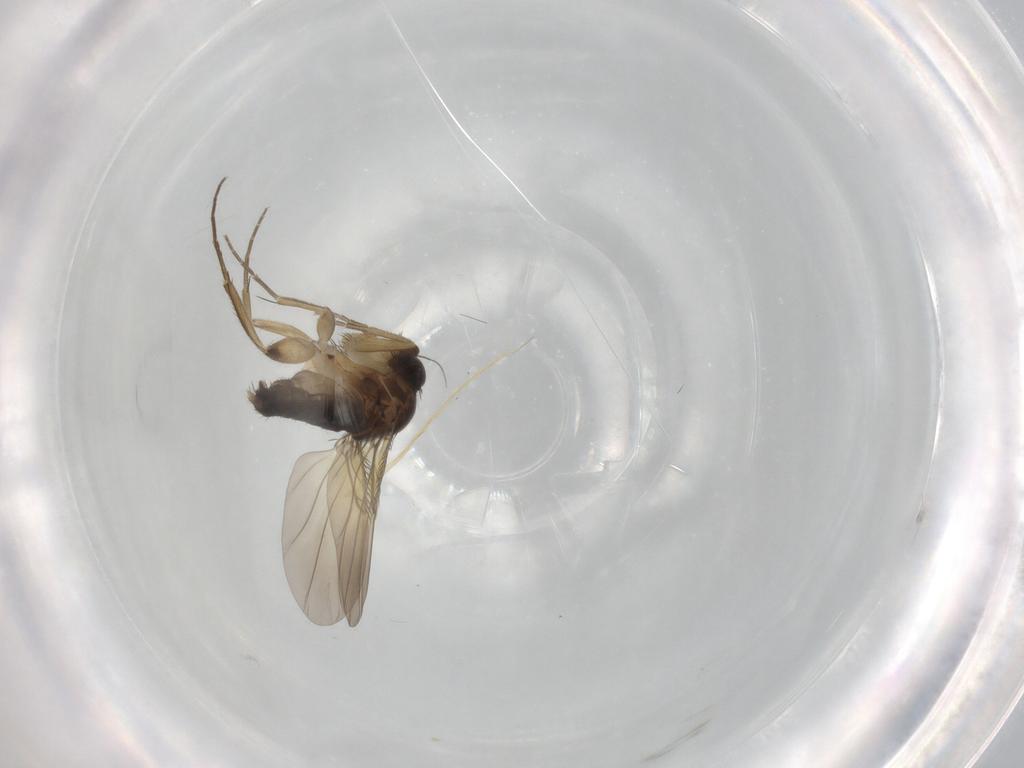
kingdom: Animalia
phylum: Arthropoda
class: Insecta
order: Diptera
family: Phoridae
